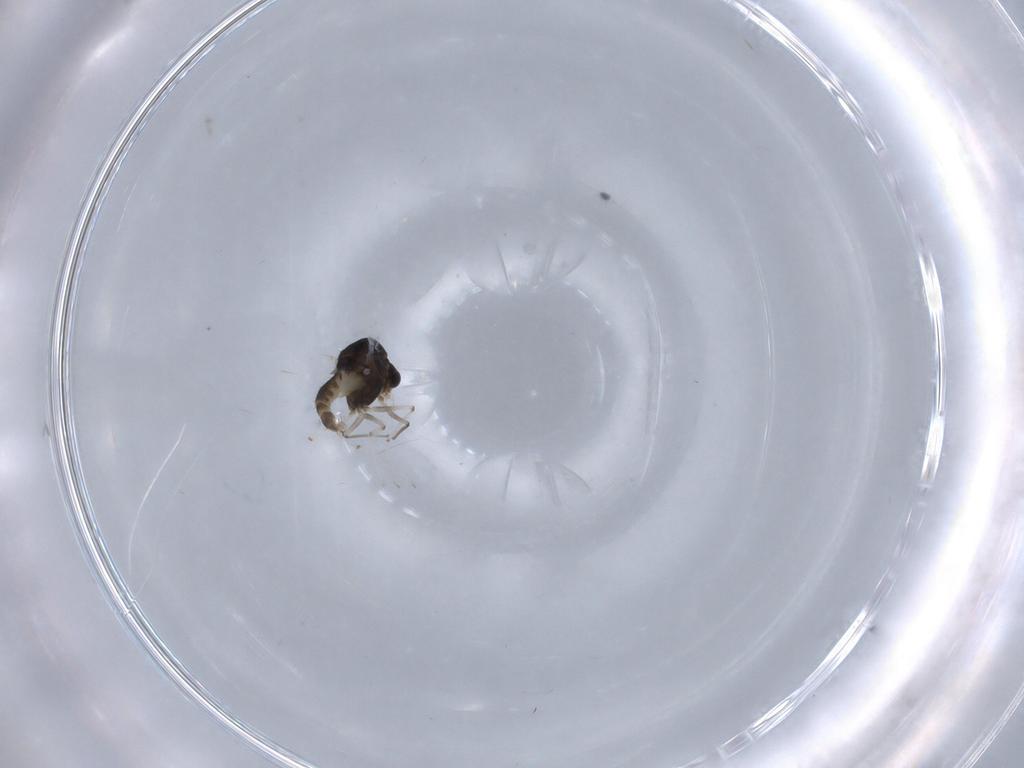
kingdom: Animalia
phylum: Arthropoda
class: Insecta
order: Diptera
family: Chironomidae
